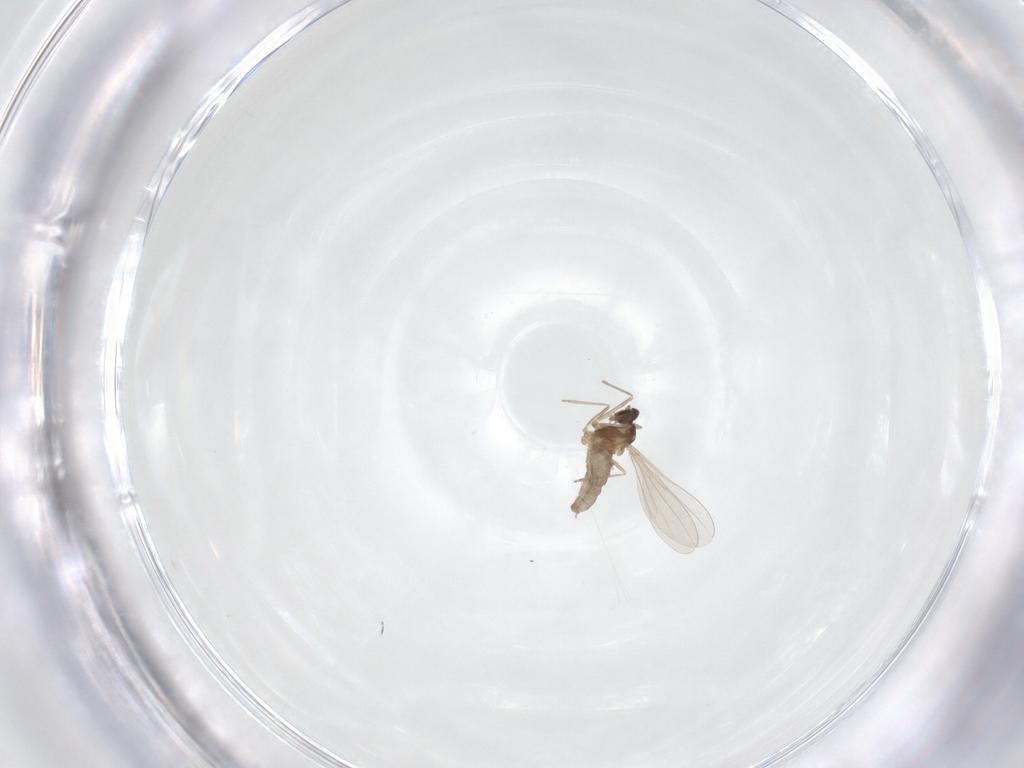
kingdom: Animalia
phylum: Arthropoda
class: Insecta
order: Diptera
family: Cecidomyiidae
